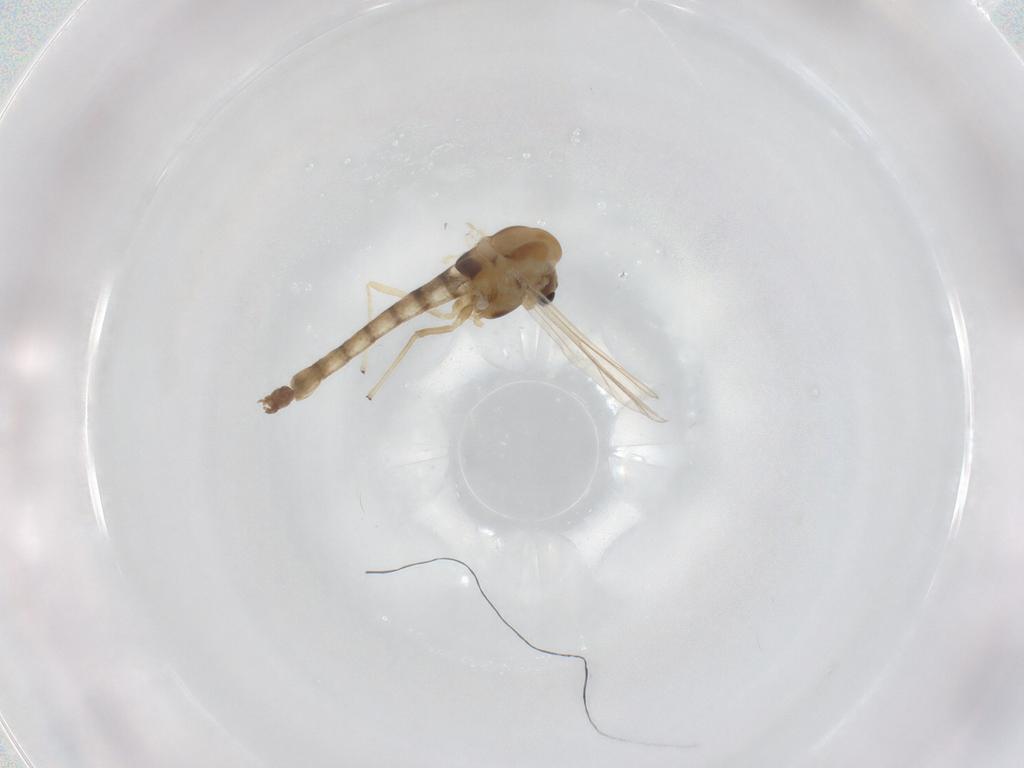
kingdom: Animalia
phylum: Arthropoda
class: Insecta
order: Diptera
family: Chironomidae
